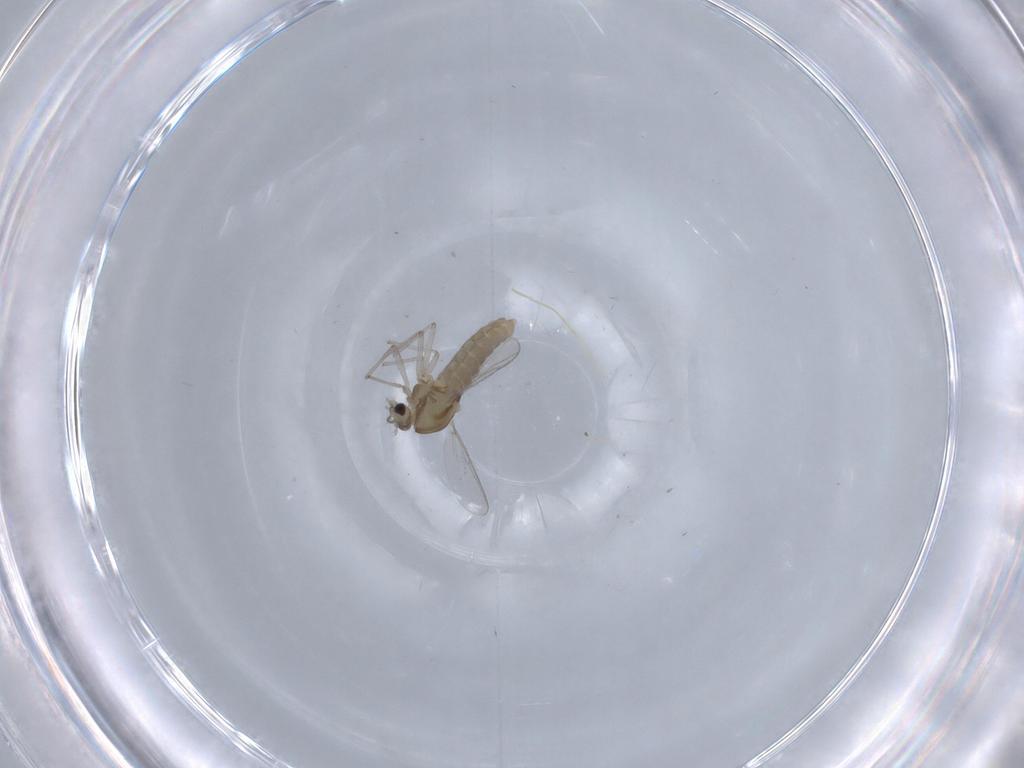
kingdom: Animalia
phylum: Arthropoda
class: Insecta
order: Diptera
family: Chironomidae
